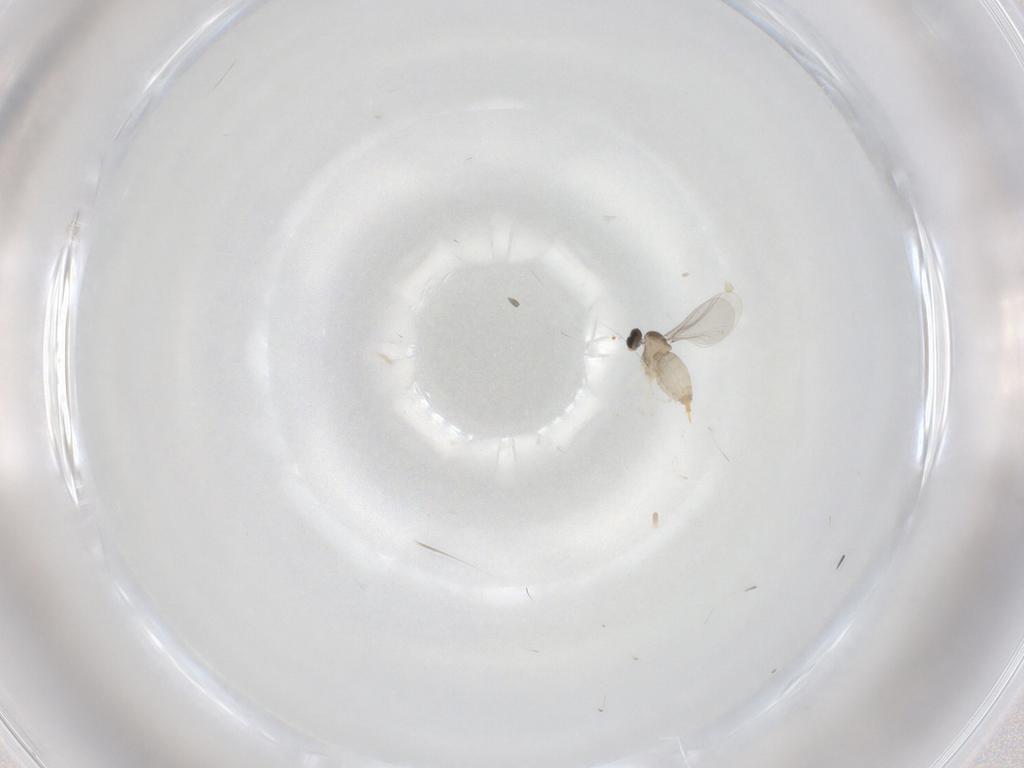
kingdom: Animalia
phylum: Arthropoda
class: Insecta
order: Diptera
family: Cecidomyiidae
